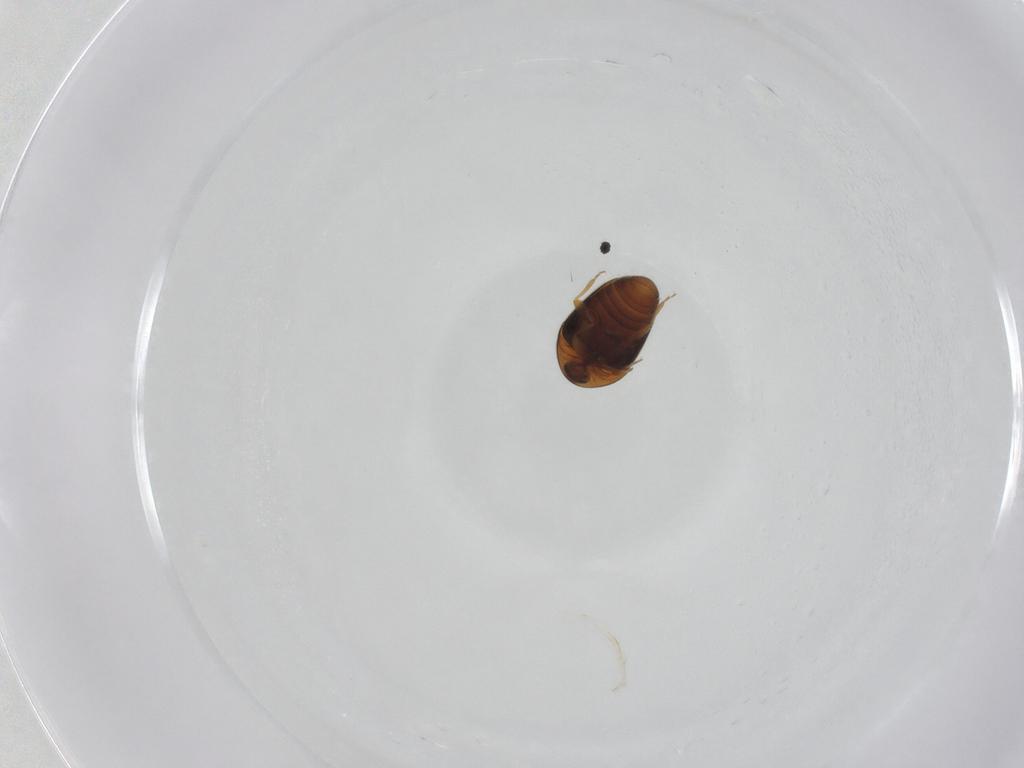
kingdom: Animalia
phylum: Arthropoda
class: Insecta
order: Coleoptera
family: Corylophidae
